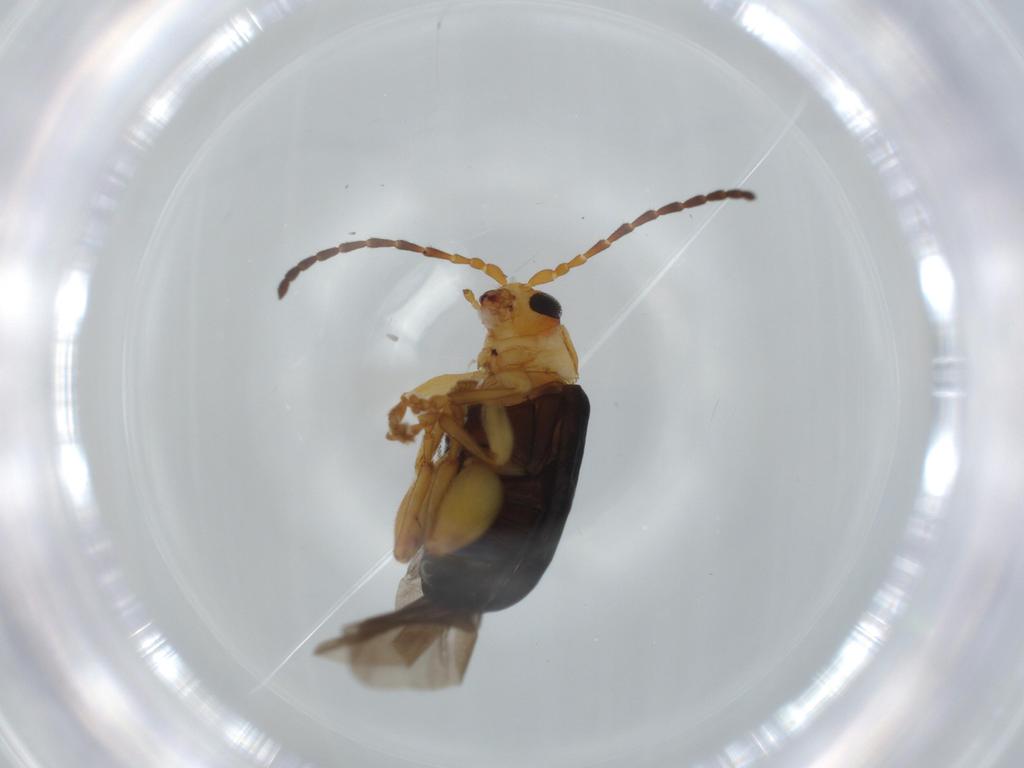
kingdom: Animalia
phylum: Arthropoda
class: Insecta
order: Coleoptera
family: Chrysomelidae
